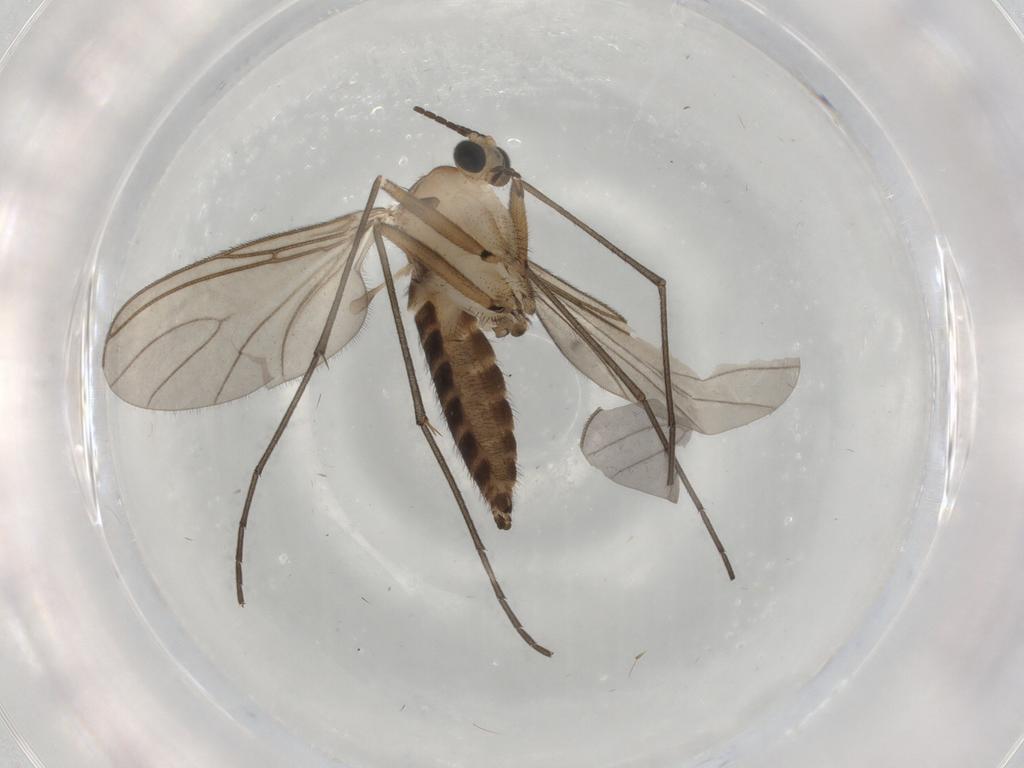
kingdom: Animalia
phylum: Arthropoda
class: Insecta
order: Diptera
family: Sciaridae
